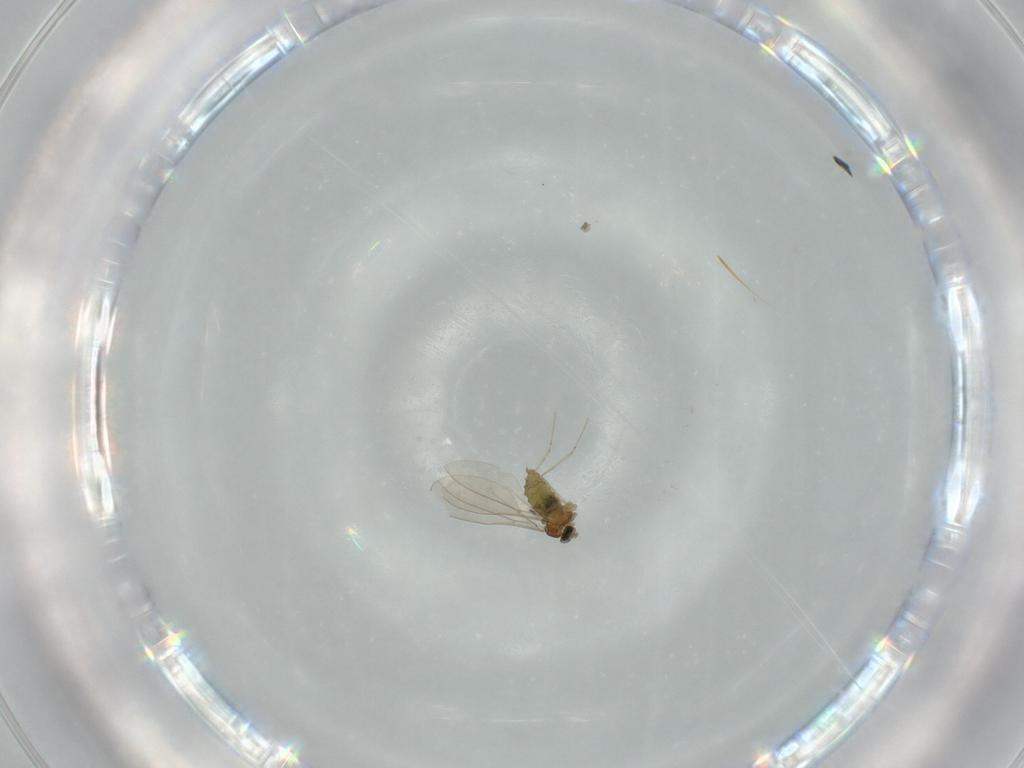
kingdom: Animalia
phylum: Arthropoda
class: Insecta
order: Diptera
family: Cecidomyiidae
